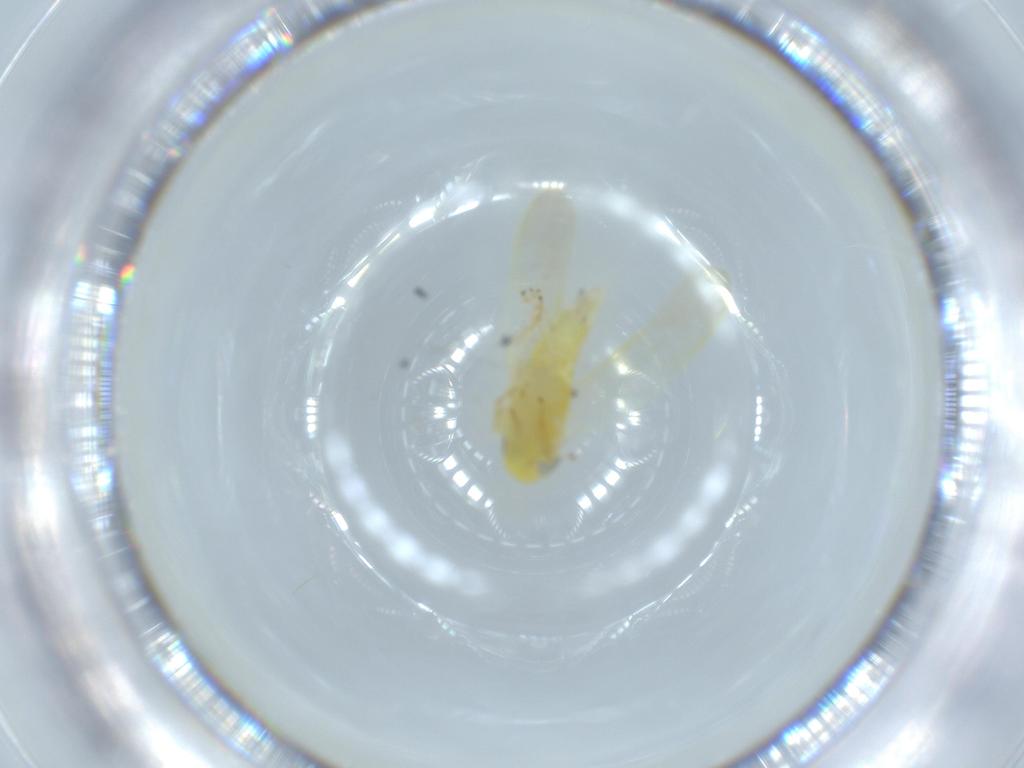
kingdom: Animalia
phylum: Arthropoda
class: Insecta
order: Hemiptera
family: Cicadellidae
